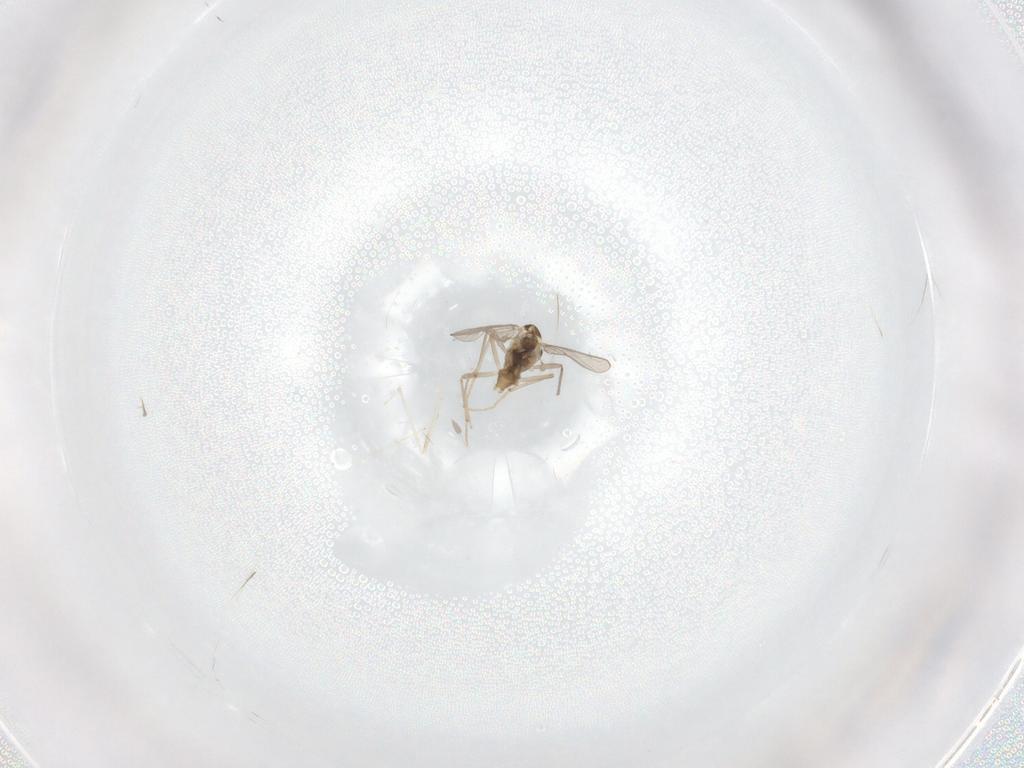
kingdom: Animalia
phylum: Arthropoda
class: Insecta
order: Diptera
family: Chironomidae
